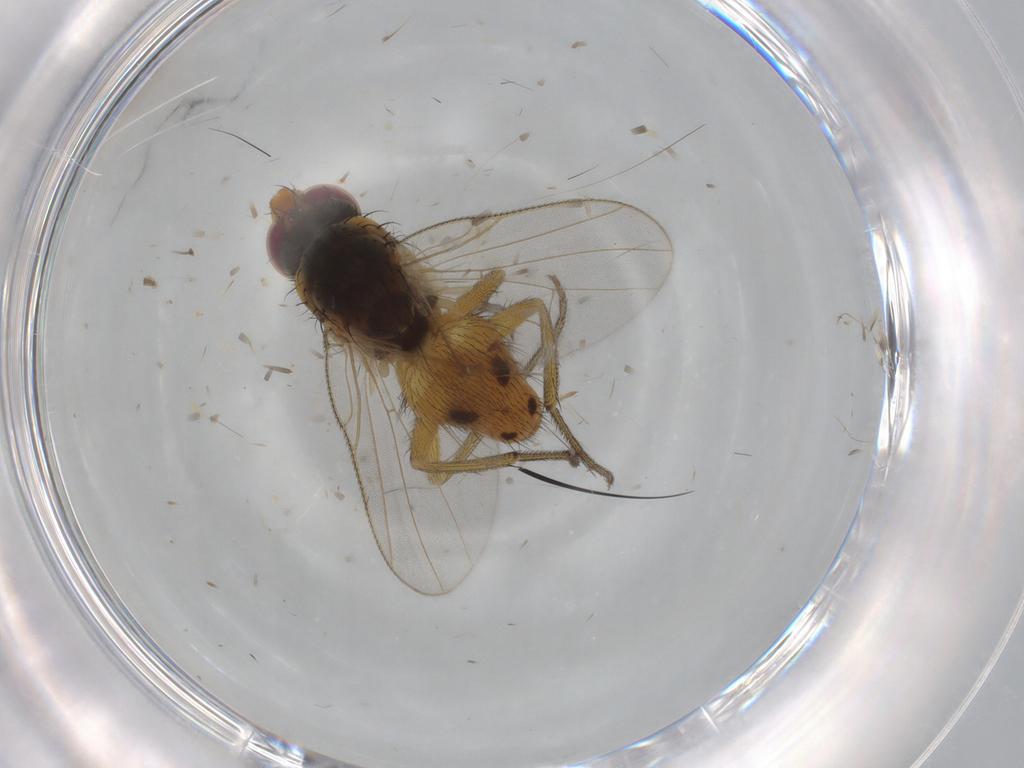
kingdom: Animalia
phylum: Arthropoda
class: Insecta
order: Diptera
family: Muscidae
